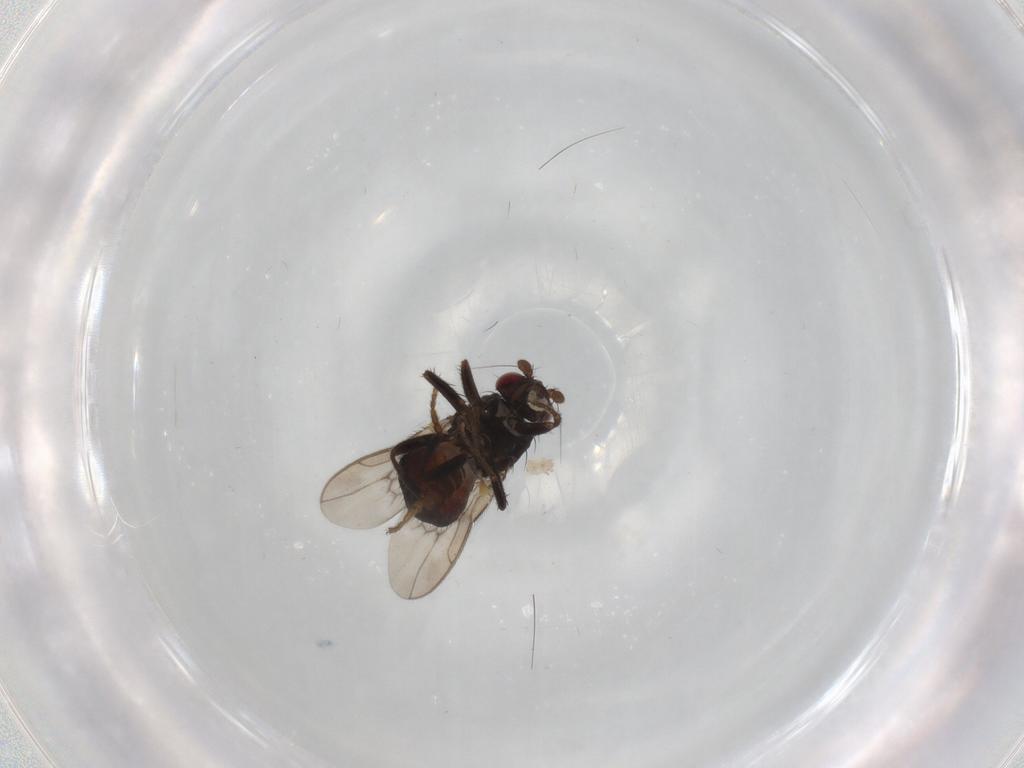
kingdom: Animalia
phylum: Arthropoda
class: Insecta
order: Diptera
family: Sphaeroceridae
